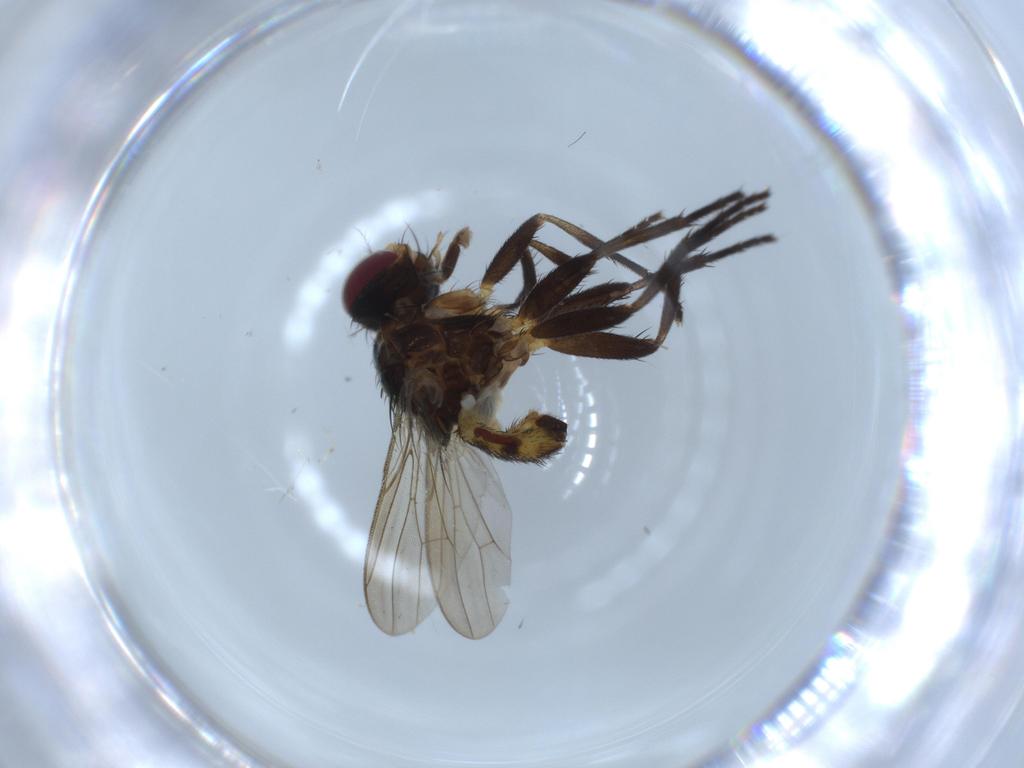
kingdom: Animalia
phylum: Arthropoda
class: Insecta
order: Diptera
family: Anthomyiidae
